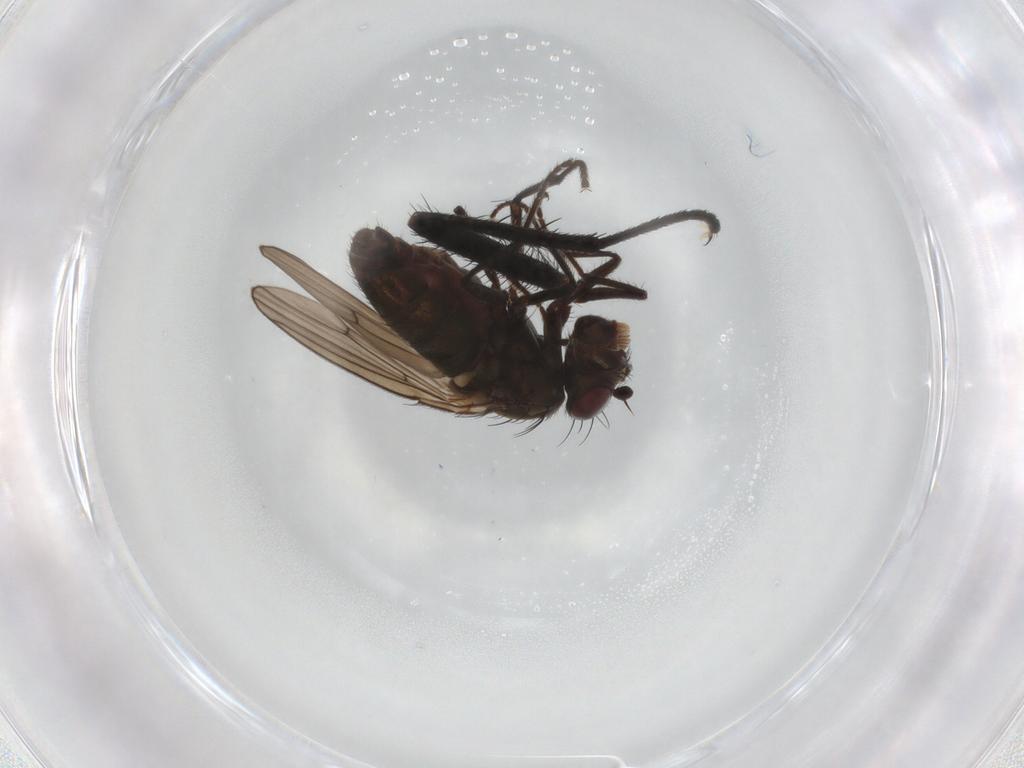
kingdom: Animalia
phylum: Arthropoda
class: Insecta
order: Diptera
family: Ephydridae
